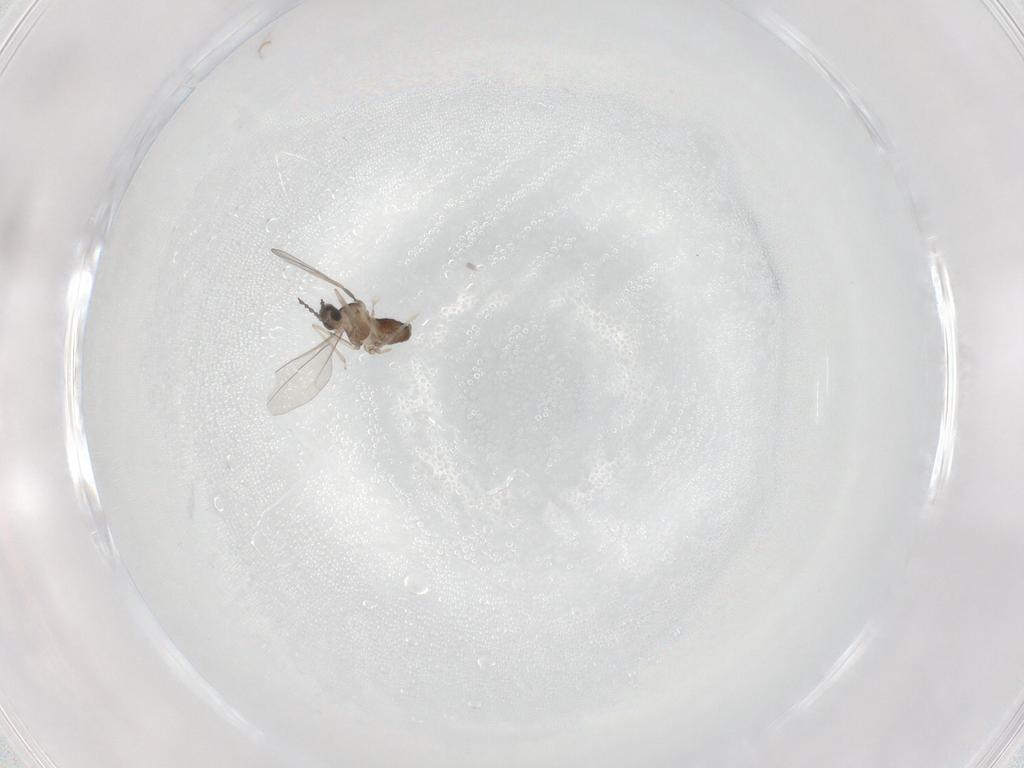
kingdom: Animalia
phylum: Arthropoda
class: Insecta
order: Diptera
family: Cecidomyiidae
